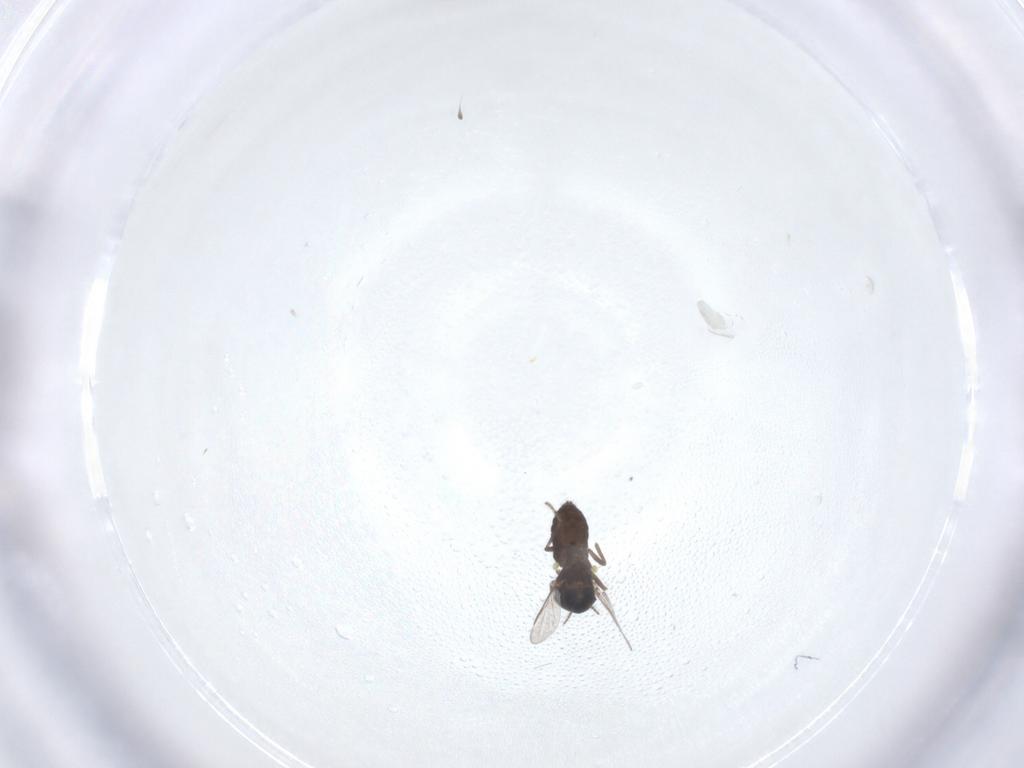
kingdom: Animalia
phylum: Arthropoda
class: Insecta
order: Diptera
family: Ceratopogonidae
